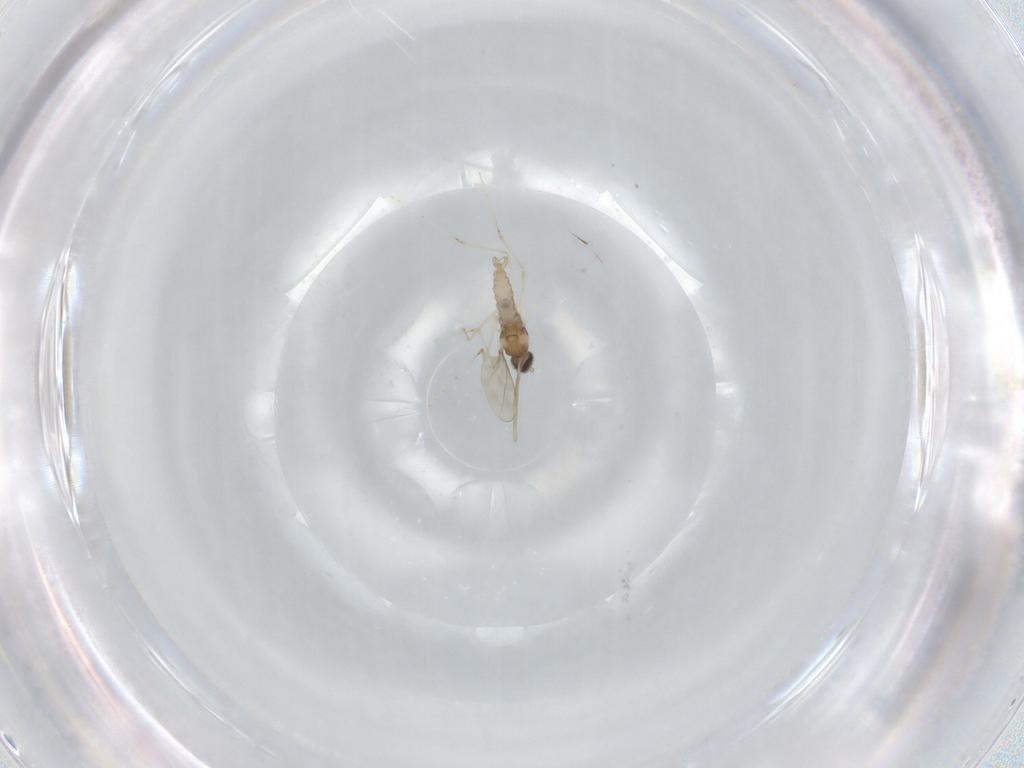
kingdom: Animalia
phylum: Arthropoda
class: Insecta
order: Diptera
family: Cecidomyiidae
